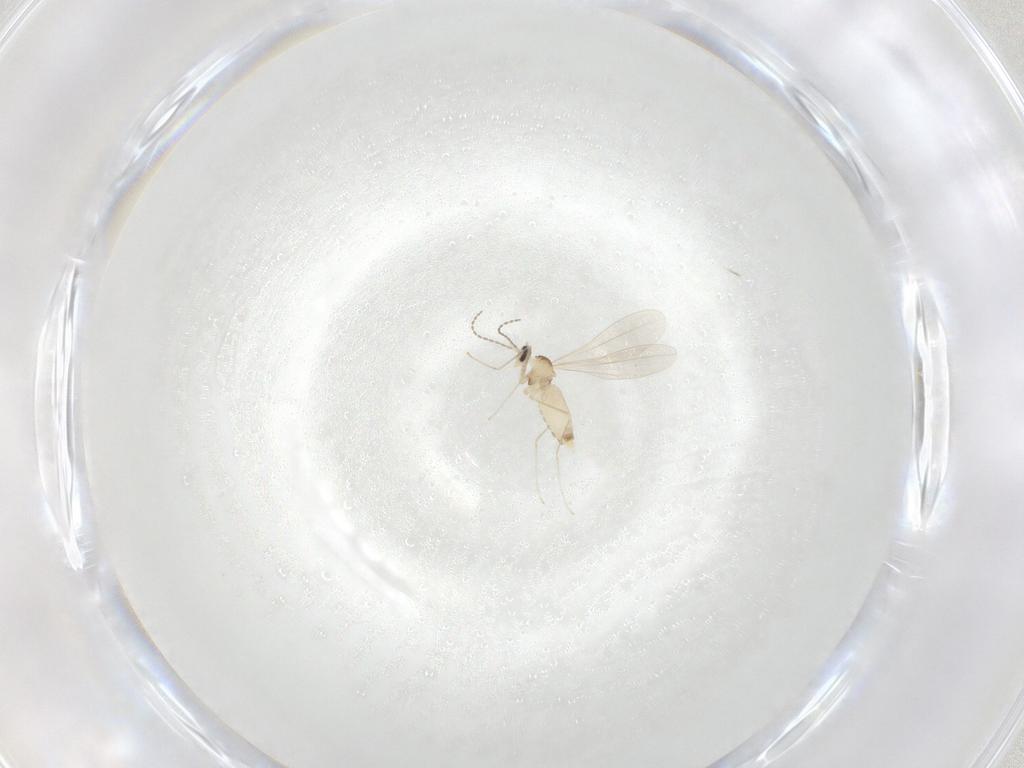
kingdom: Animalia
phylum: Arthropoda
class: Insecta
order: Diptera
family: Cecidomyiidae
